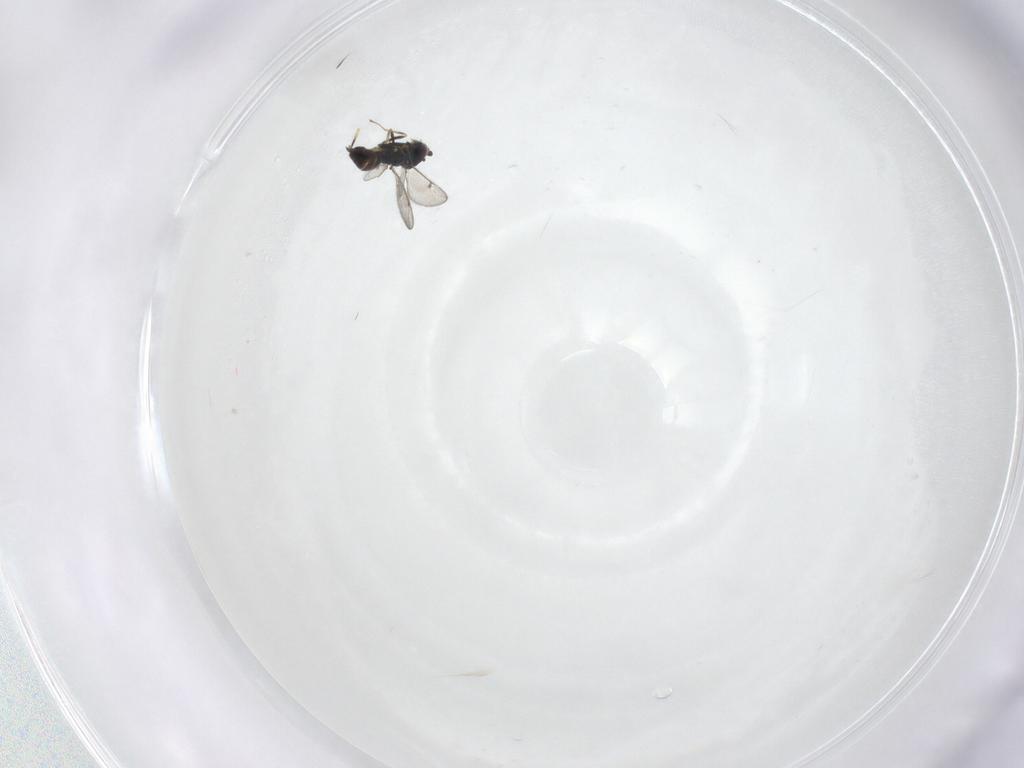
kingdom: Animalia
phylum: Arthropoda
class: Insecta
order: Hymenoptera
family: Eulophidae
